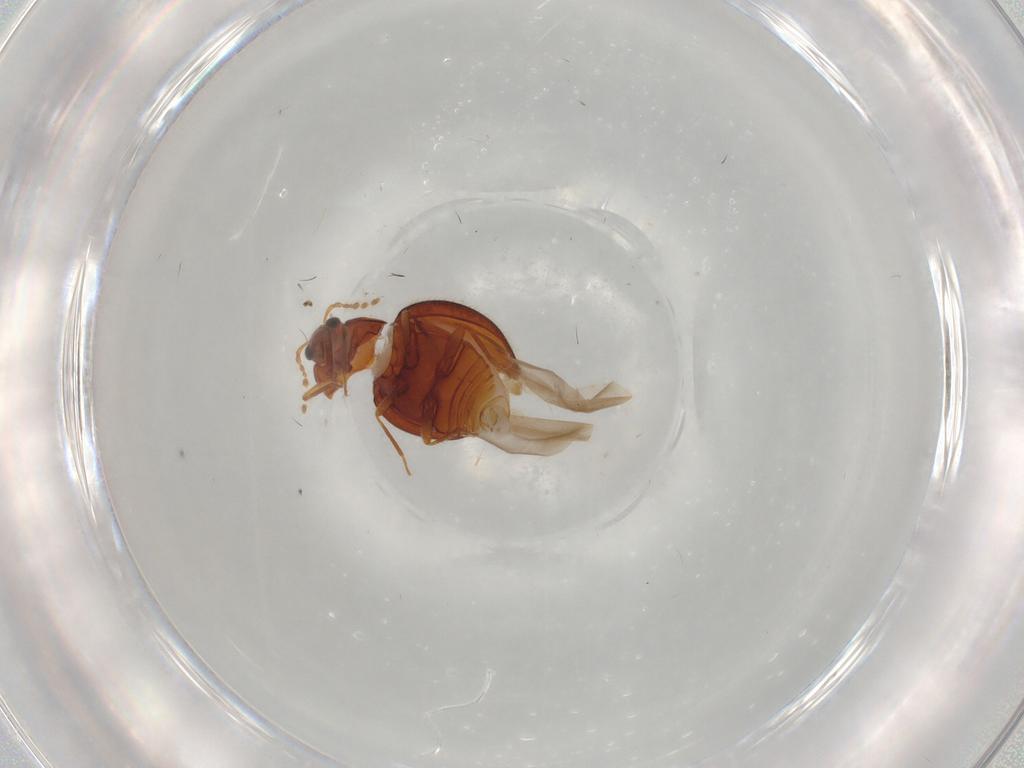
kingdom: Animalia
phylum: Arthropoda
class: Insecta
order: Coleoptera
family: Anamorphidae
